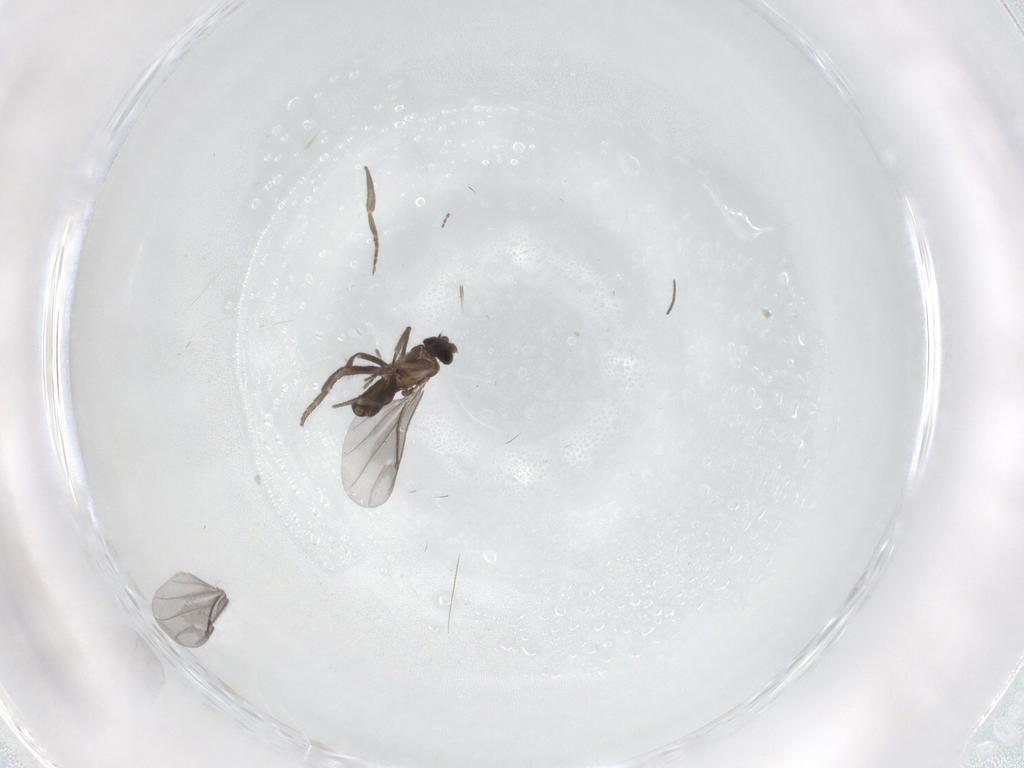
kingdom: Animalia
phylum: Arthropoda
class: Insecta
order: Diptera
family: Cecidomyiidae
